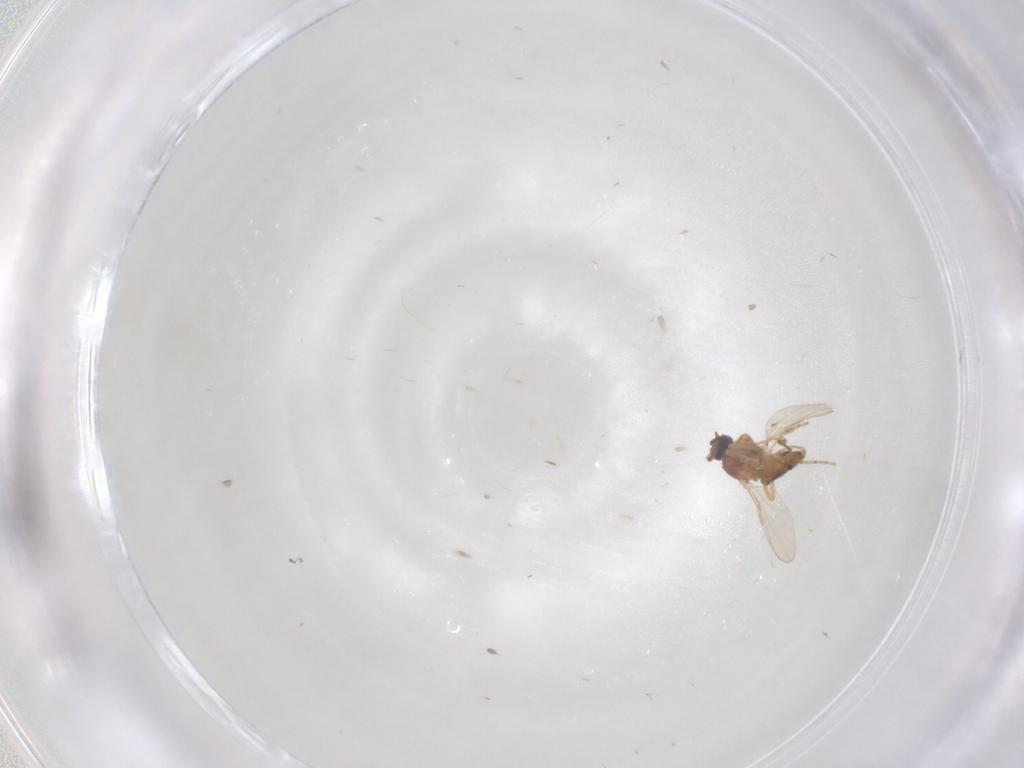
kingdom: Animalia
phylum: Arthropoda
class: Insecta
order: Diptera
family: Ceratopogonidae
